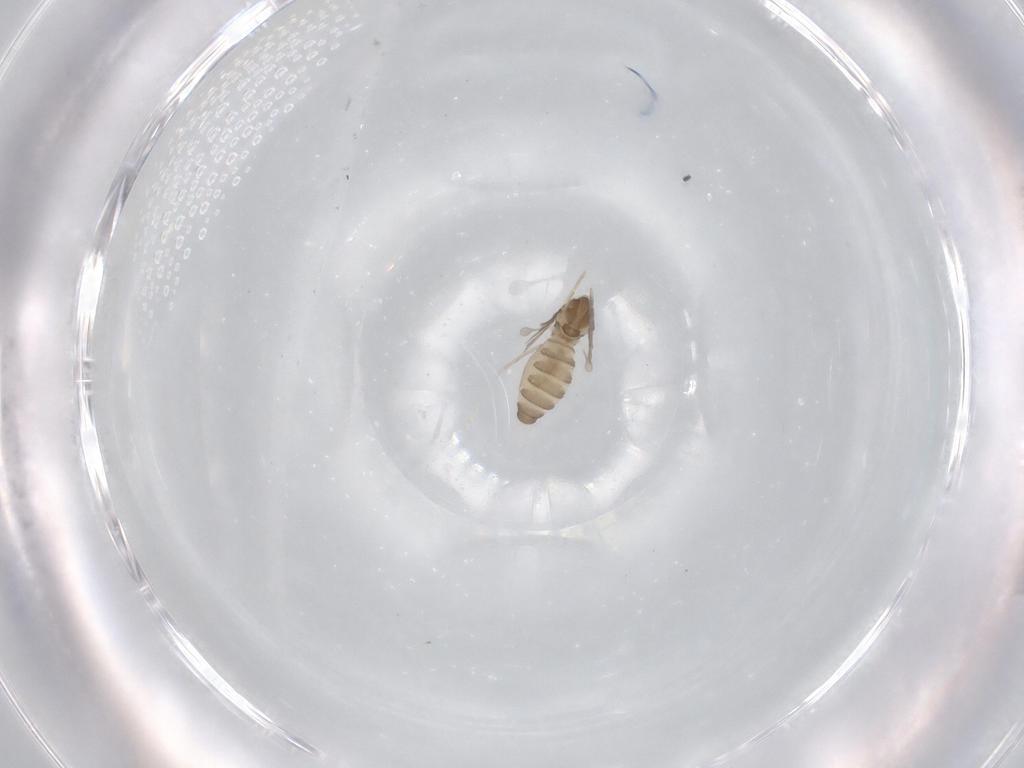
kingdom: Animalia
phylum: Arthropoda
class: Insecta
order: Diptera
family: Cecidomyiidae
